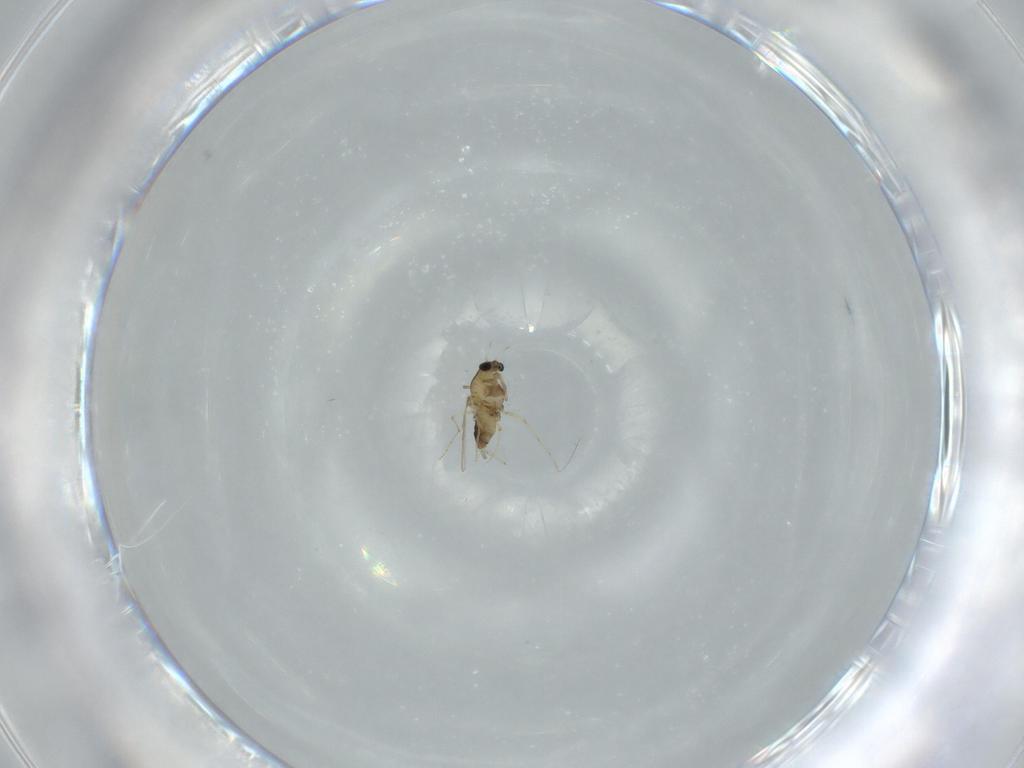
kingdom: Animalia
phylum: Arthropoda
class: Insecta
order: Diptera
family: Chironomidae
